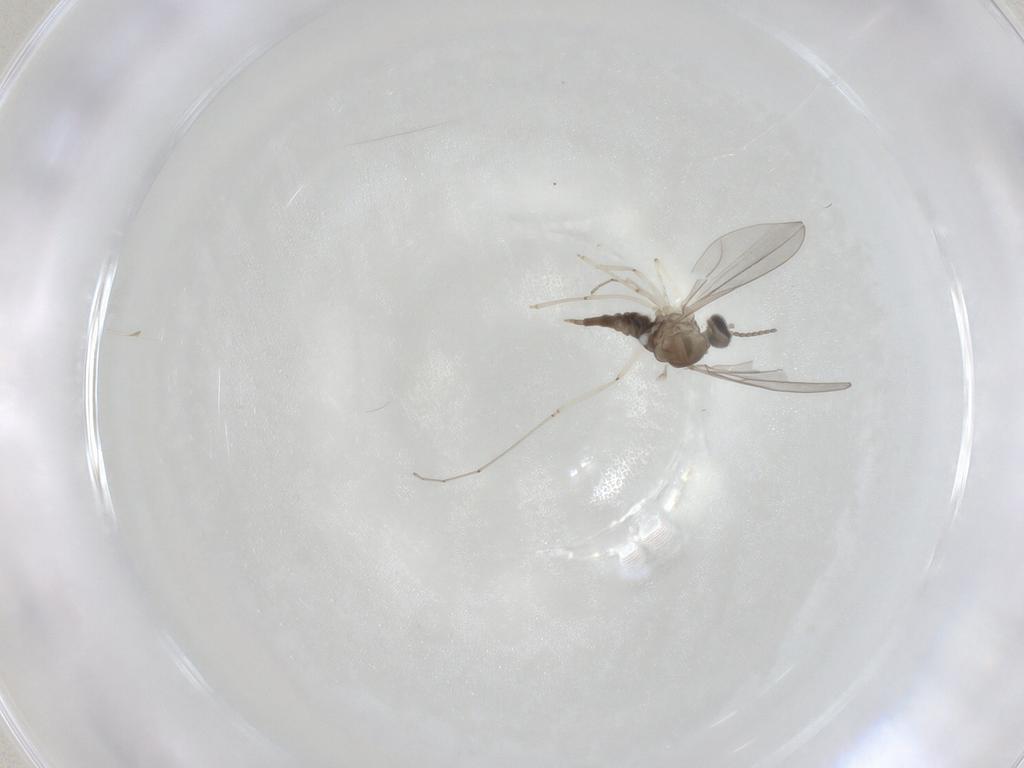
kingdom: Animalia
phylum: Arthropoda
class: Insecta
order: Diptera
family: Cecidomyiidae
